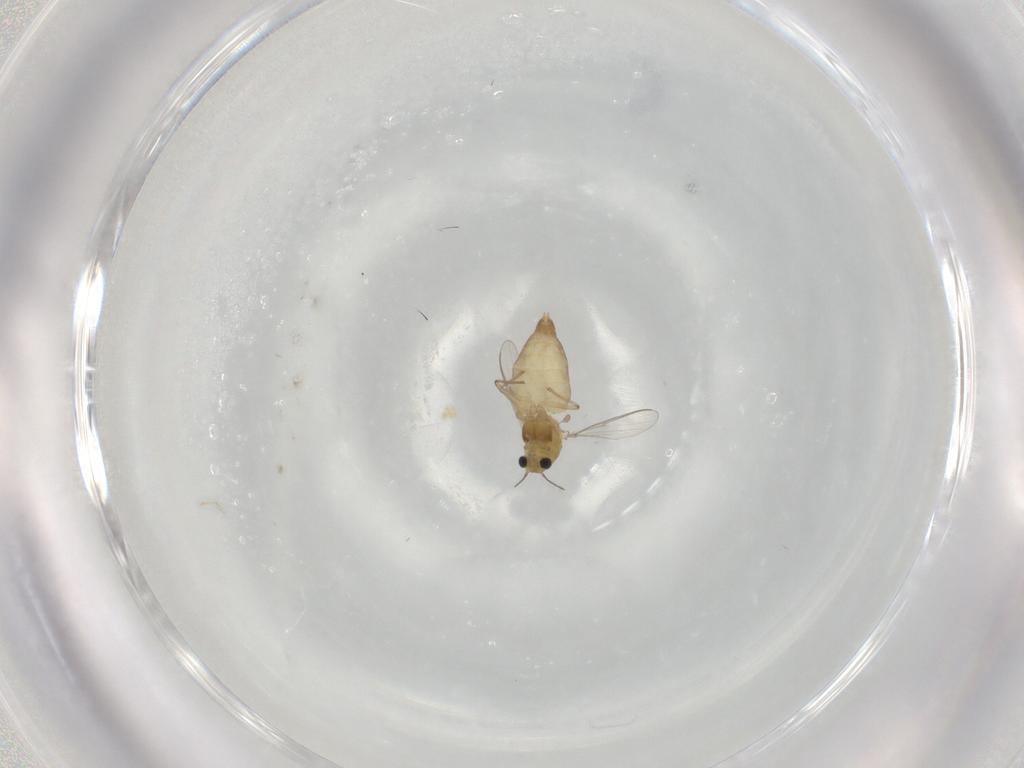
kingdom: Animalia
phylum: Arthropoda
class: Insecta
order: Diptera
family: Chironomidae
